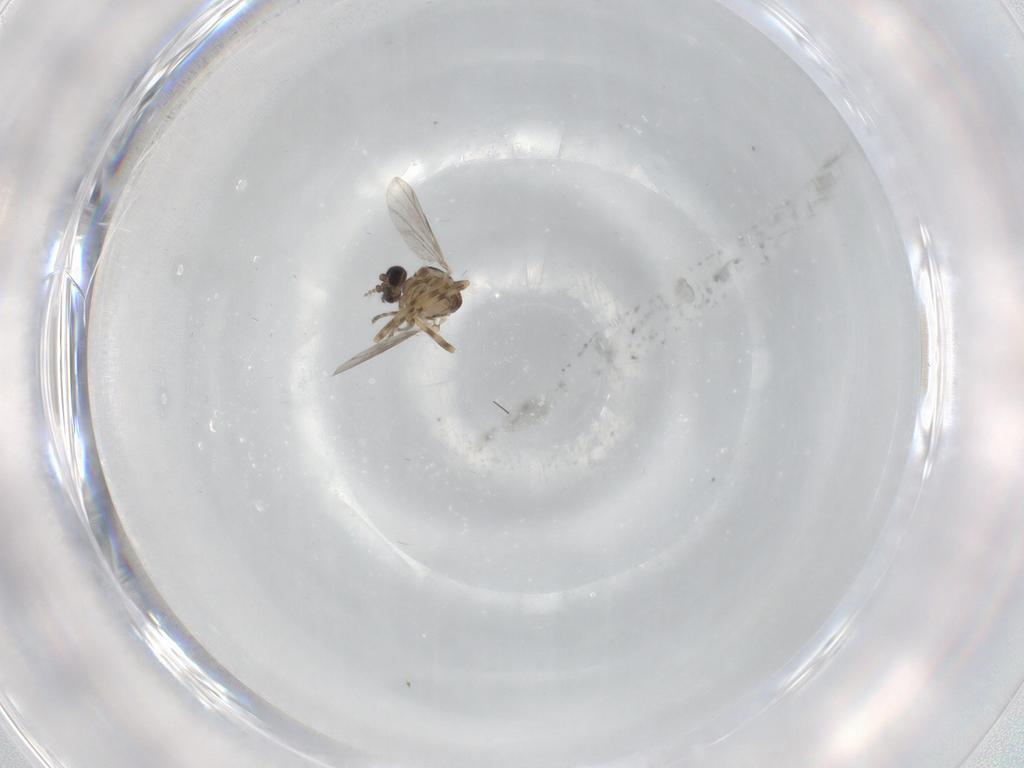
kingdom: Animalia
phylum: Arthropoda
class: Insecta
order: Diptera
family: Ceratopogonidae
